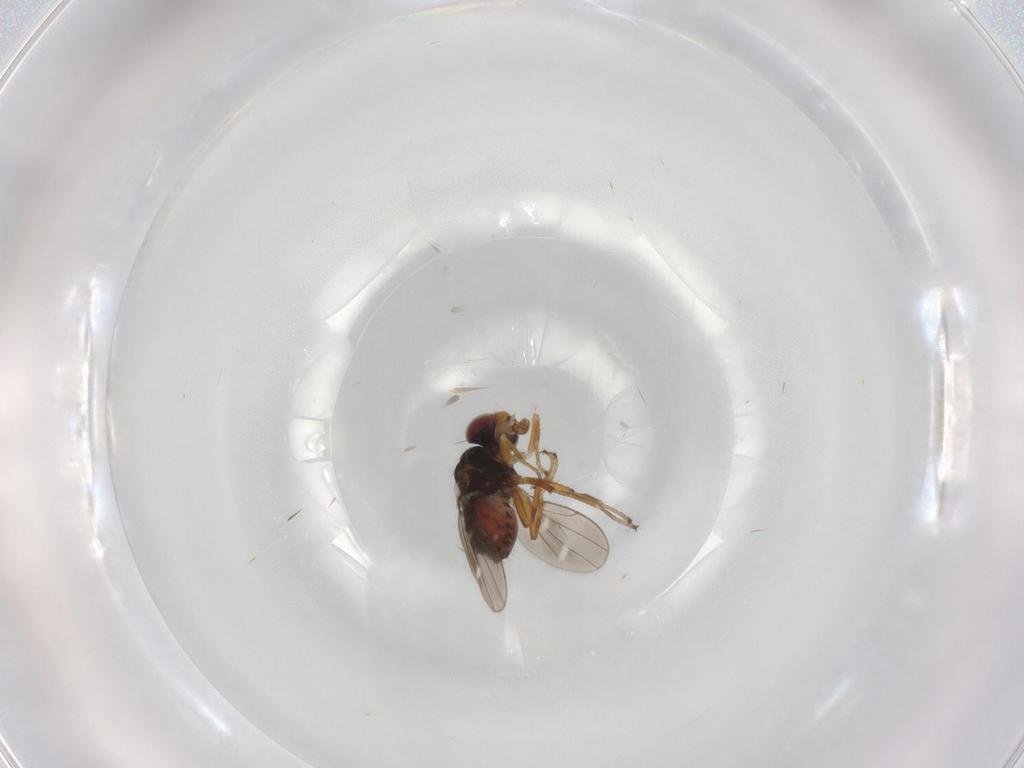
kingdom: Animalia
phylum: Arthropoda
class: Insecta
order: Diptera
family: Ephydridae
